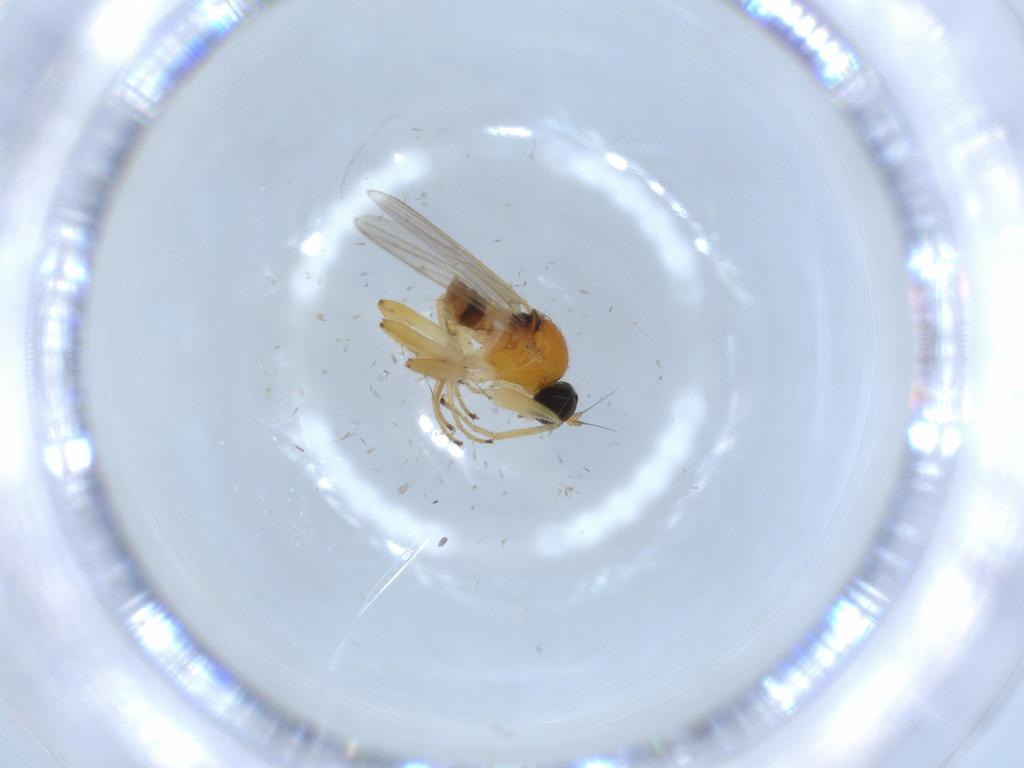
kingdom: Animalia
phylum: Arthropoda
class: Insecta
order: Diptera
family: Hybotidae
